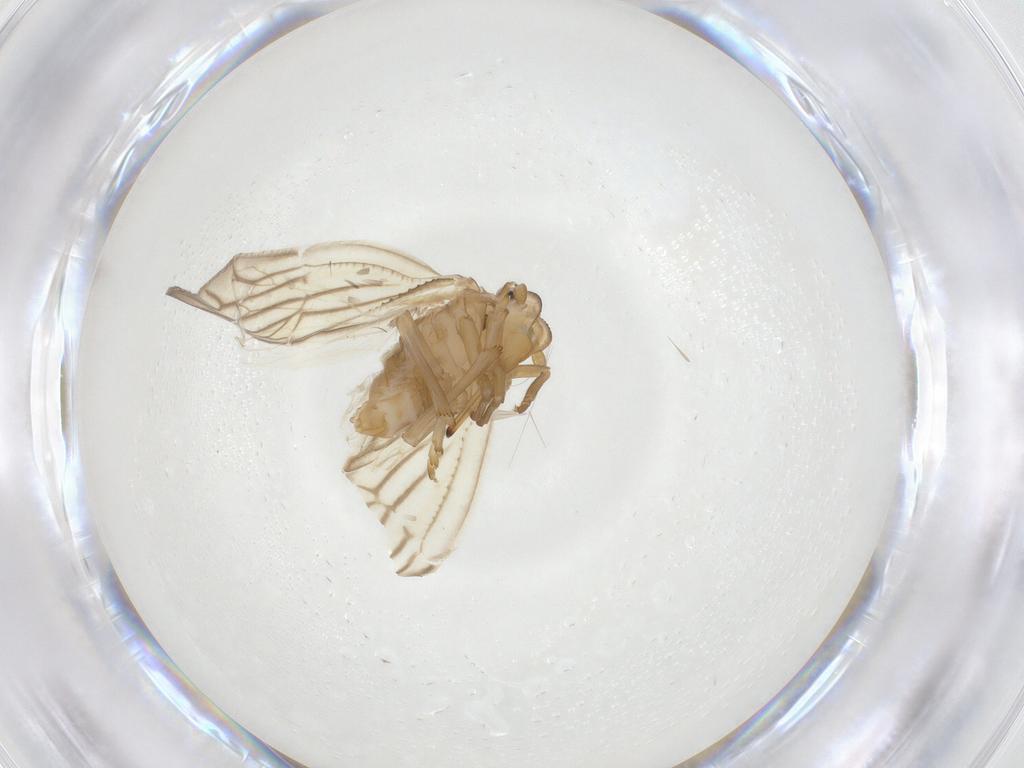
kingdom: Animalia
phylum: Arthropoda
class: Insecta
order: Hemiptera
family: Meenoplidae
